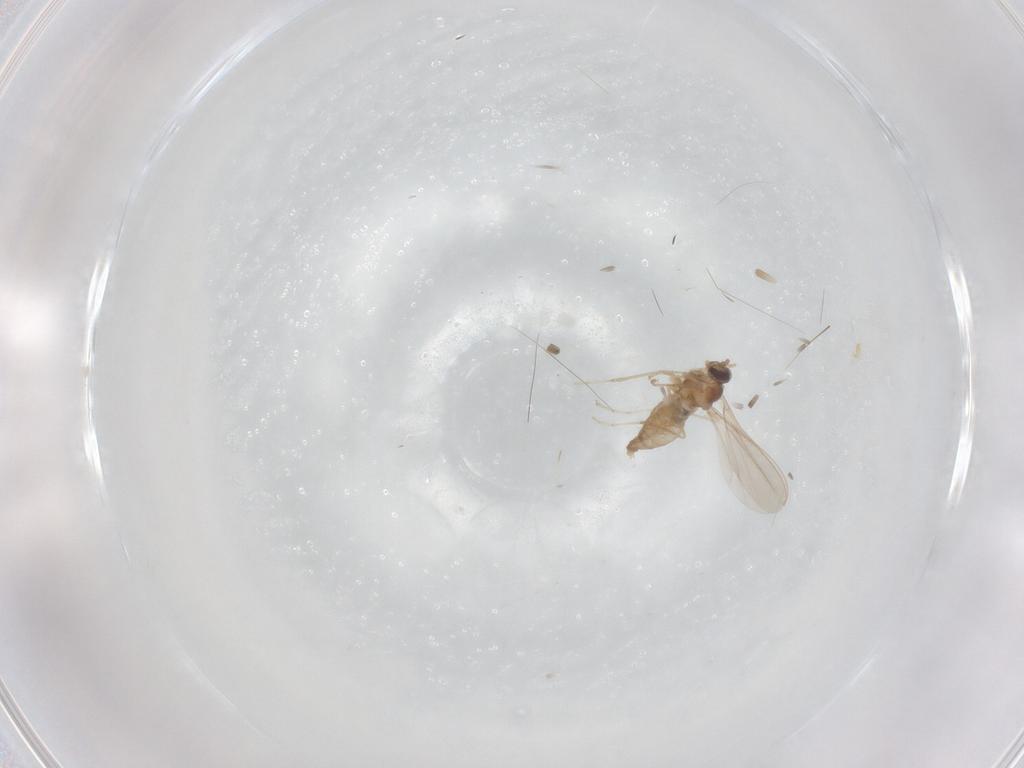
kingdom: Animalia
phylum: Arthropoda
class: Insecta
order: Diptera
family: Cecidomyiidae
